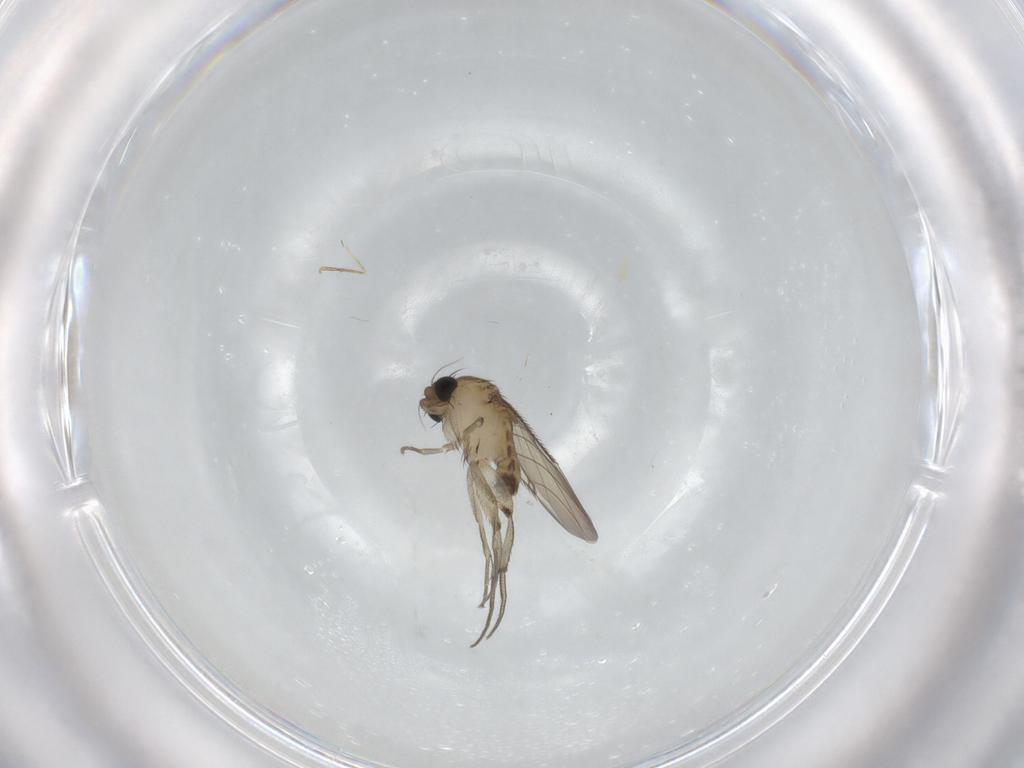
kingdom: Animalia
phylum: Arthropoda
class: Insecta
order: Diptera
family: Phoridae
